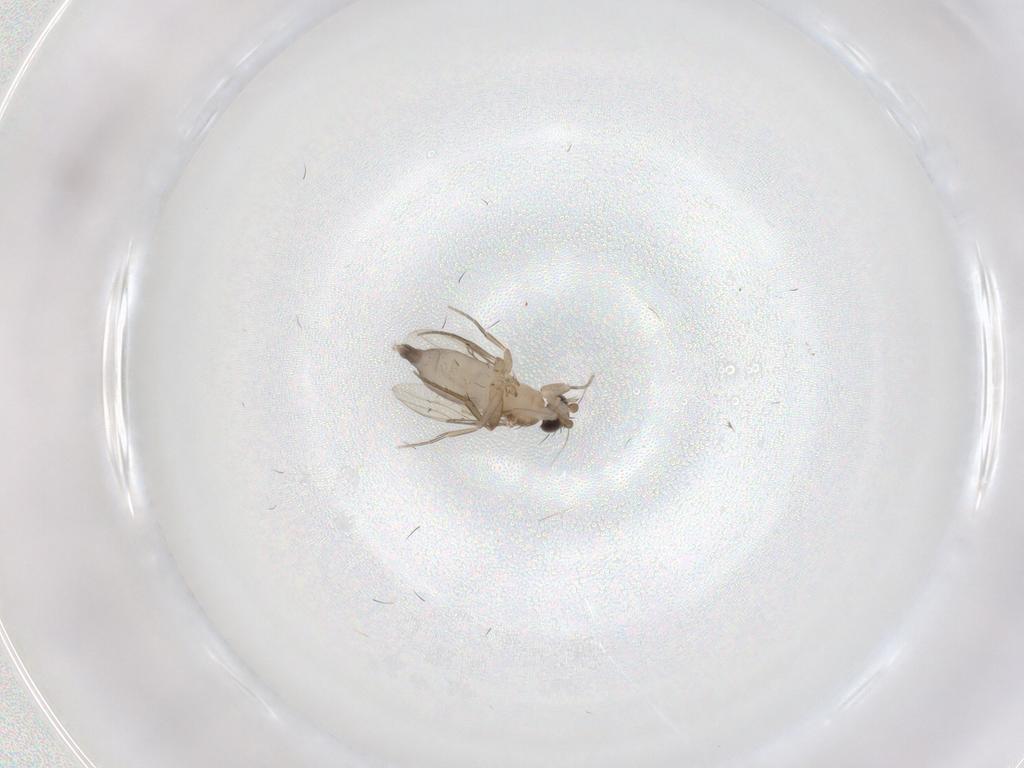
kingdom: Animalia
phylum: Arthropoda
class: Insecta
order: Diptera
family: Phoridae
